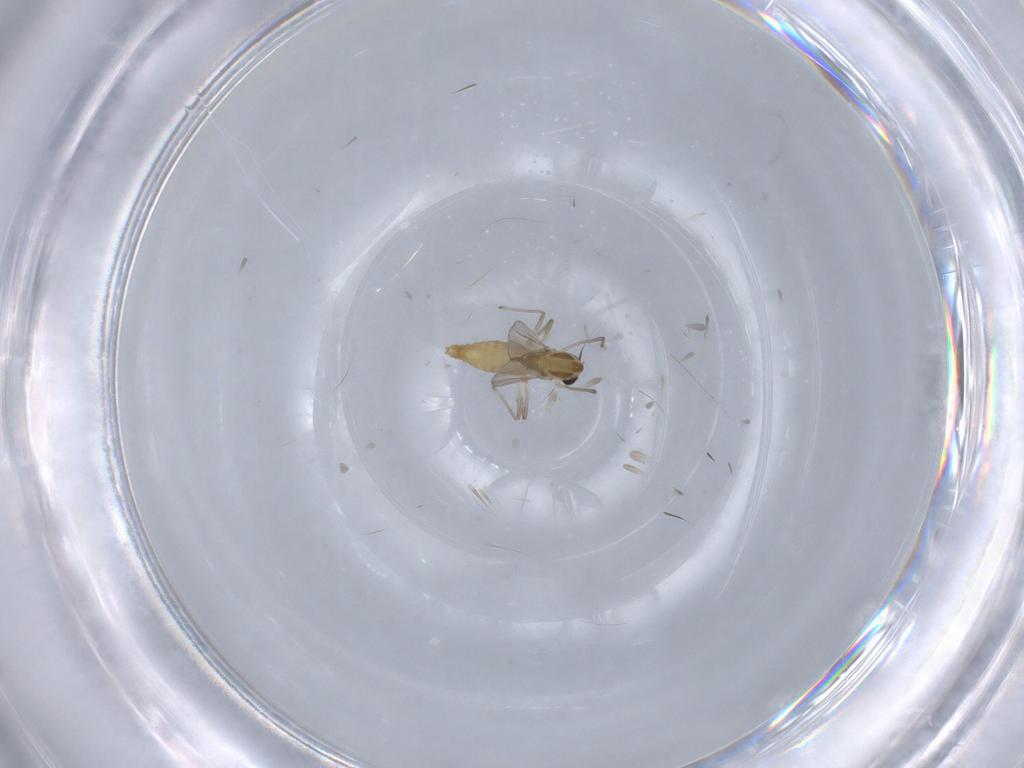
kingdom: Animalia
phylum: Arthropoda
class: Insecta
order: Diptera
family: Chironomidae
